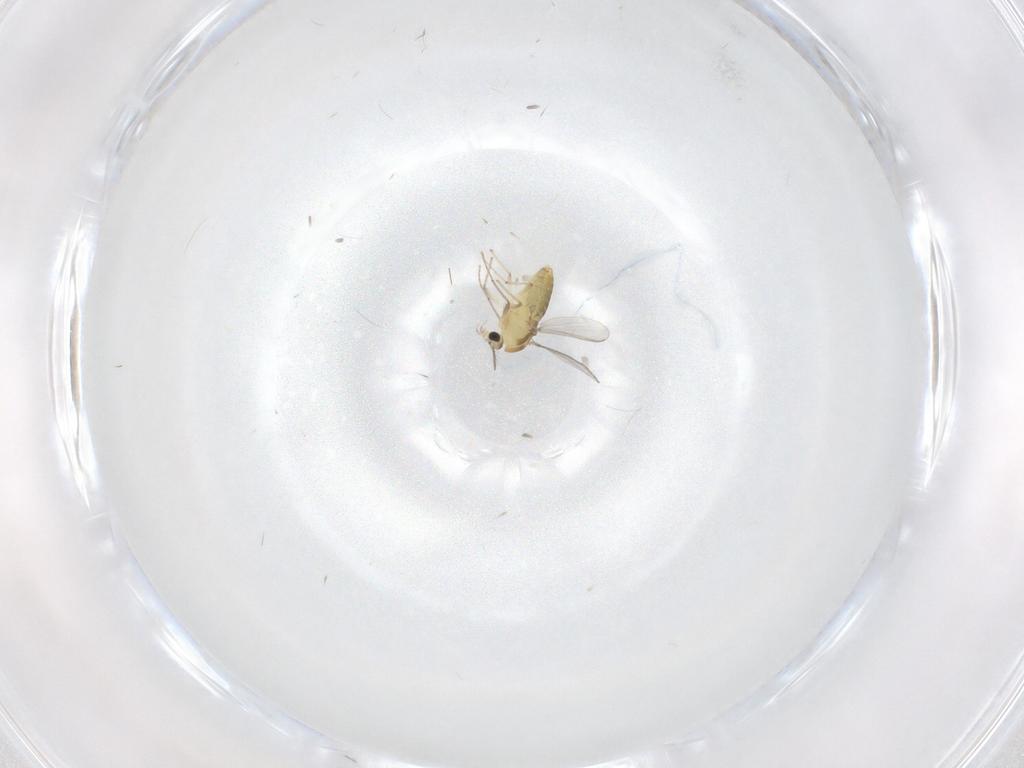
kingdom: Animalia
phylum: Arthropoda
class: Insecta
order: Diptera
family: Chironomidae
